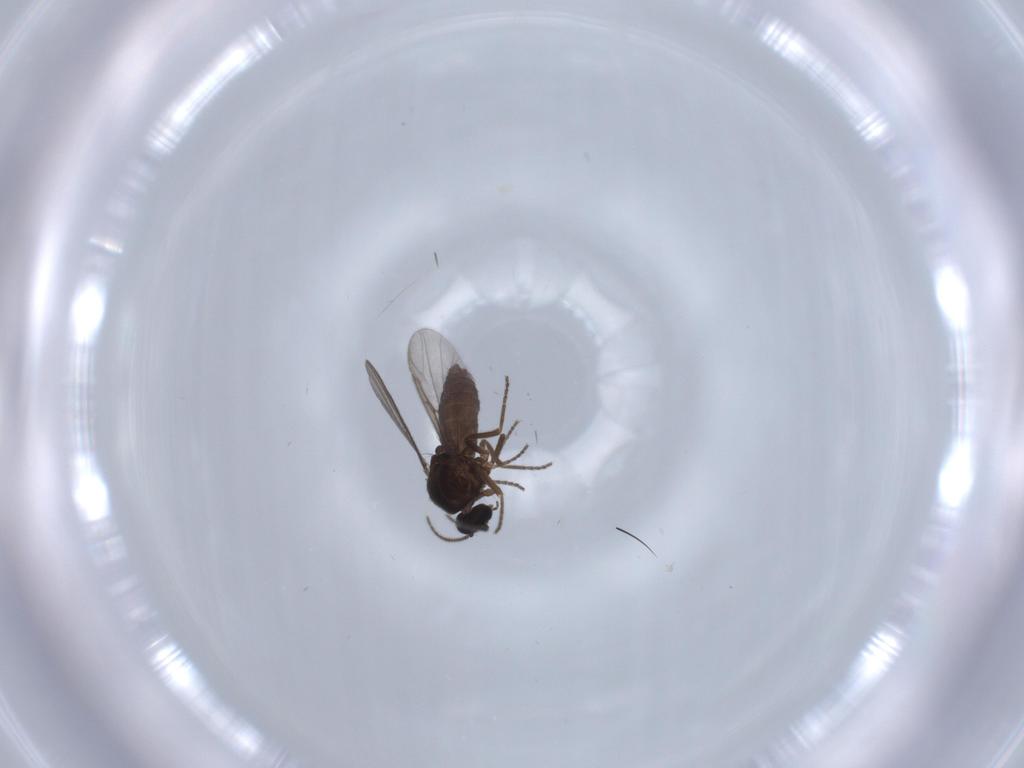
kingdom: Animalia
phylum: Arthropoda
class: Insecta
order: Diptera
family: Ceratopogonidae
